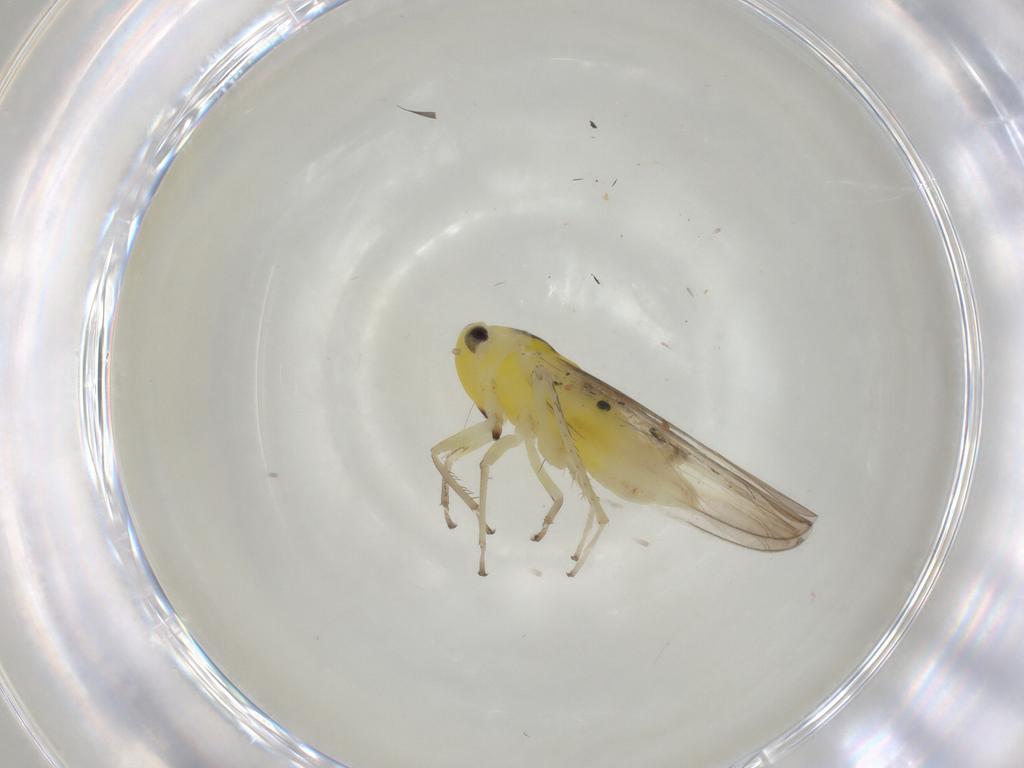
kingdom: Animalia
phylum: Arthropoda
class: Insecta
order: Hemiptera
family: Cicadellidae
